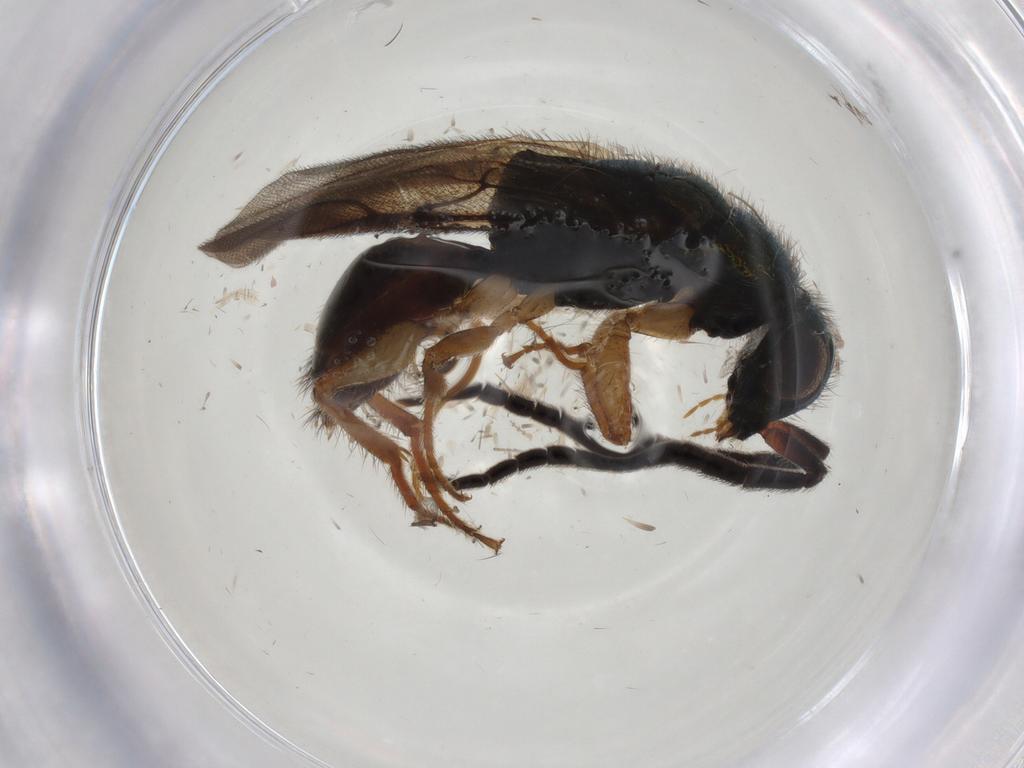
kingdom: Animalia
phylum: Arthropoda
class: Insecta
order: Hymenoptera
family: Chrysididae
